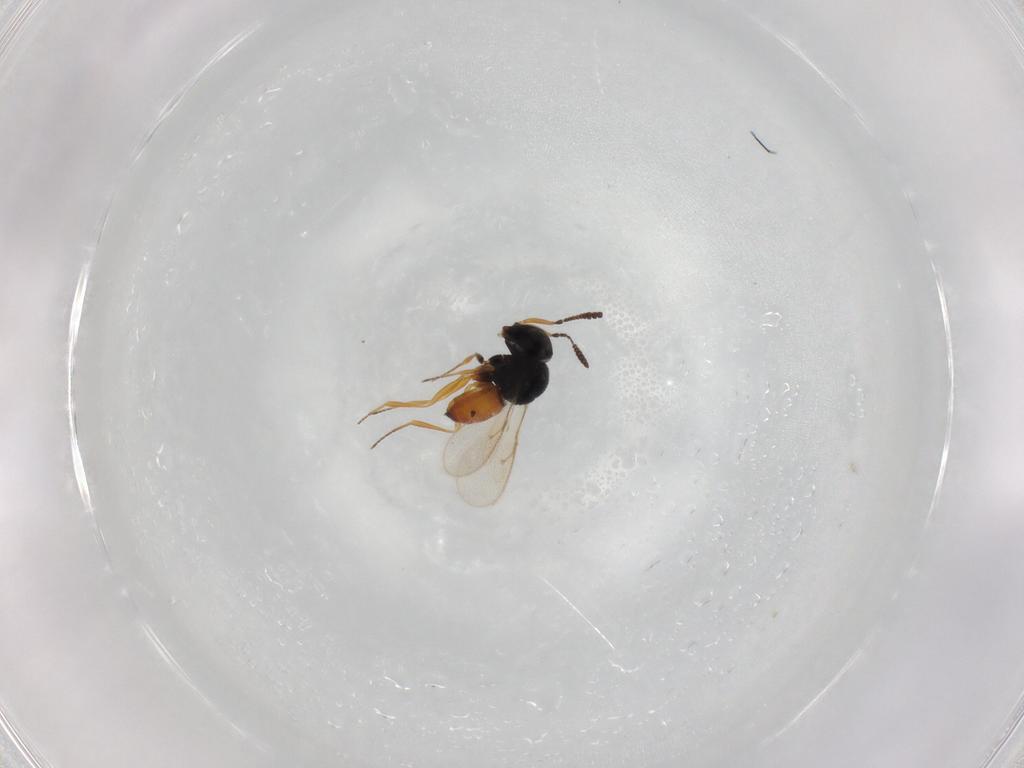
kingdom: Animalia
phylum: Arthropoda
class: Insecta
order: Hymenoptera
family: Scelionidae
